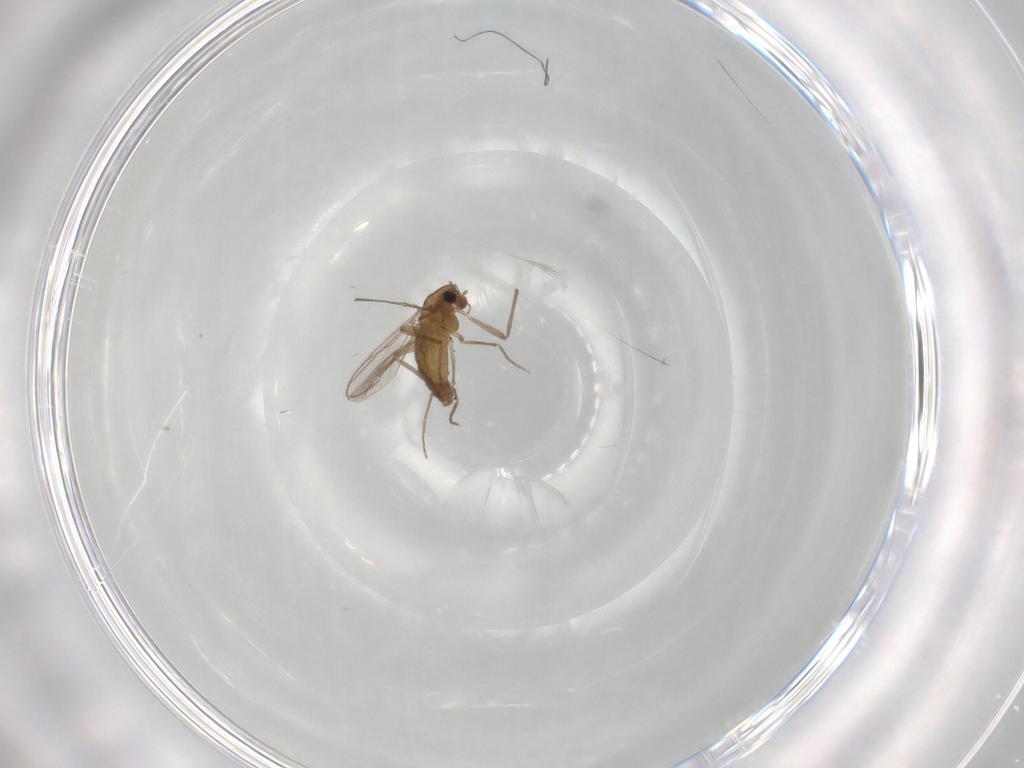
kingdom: Animalia
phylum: Arthropoda
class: Insecta
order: Diptera
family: Chironomidae
